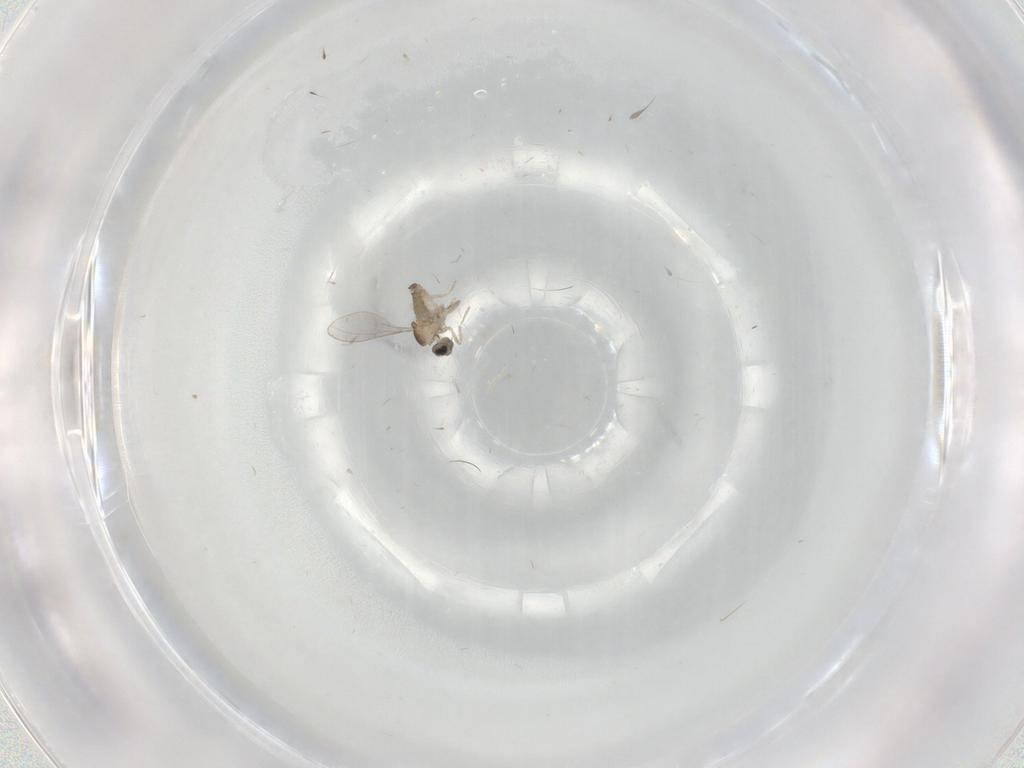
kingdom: Animalia
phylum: Arthropoda
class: Insecta
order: Diptera
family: Cecidomyiidae
